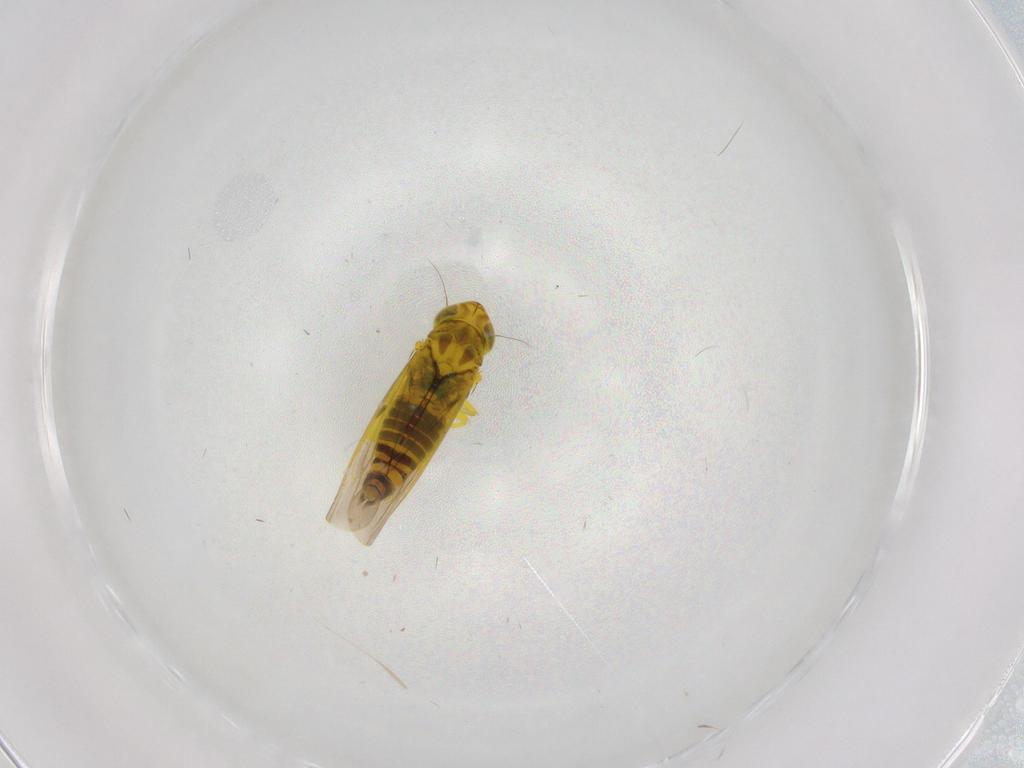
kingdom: Animalia
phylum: Arthropoda
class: Insecta
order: Hemiptera
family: Cicadellidae
